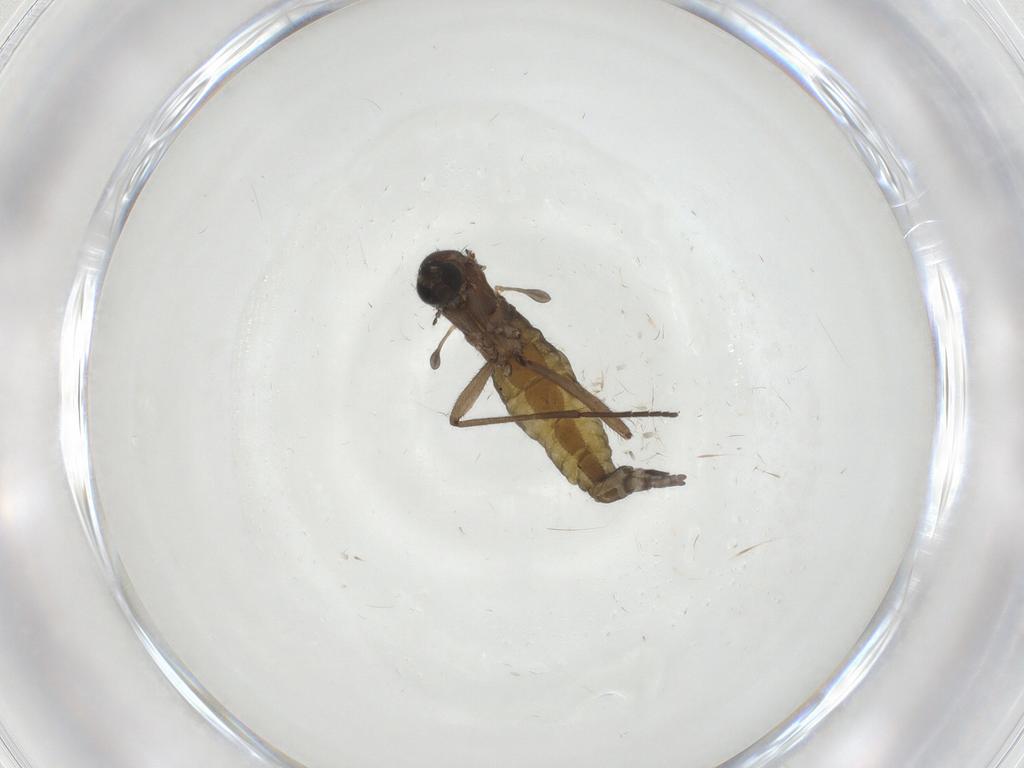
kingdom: Animalia
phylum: Arthropoda
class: Insecta
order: Diptera
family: Sciaridae
